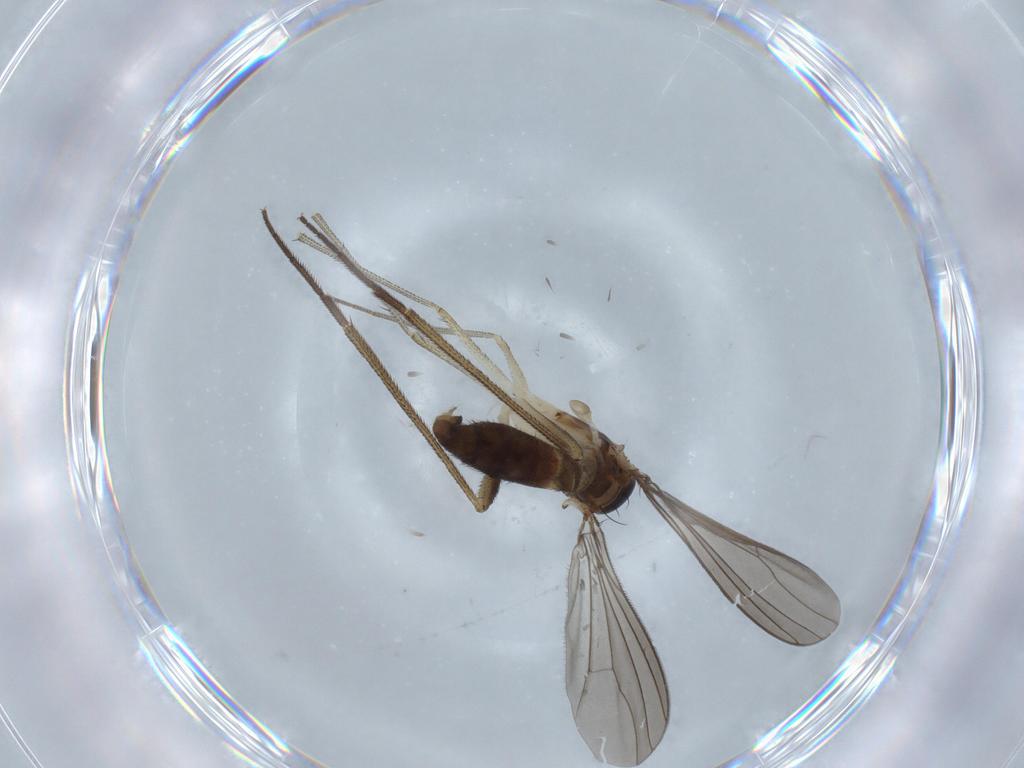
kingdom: Animalia
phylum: Arthropoda
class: Insecta
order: Diptera
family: Dolichopodidae
